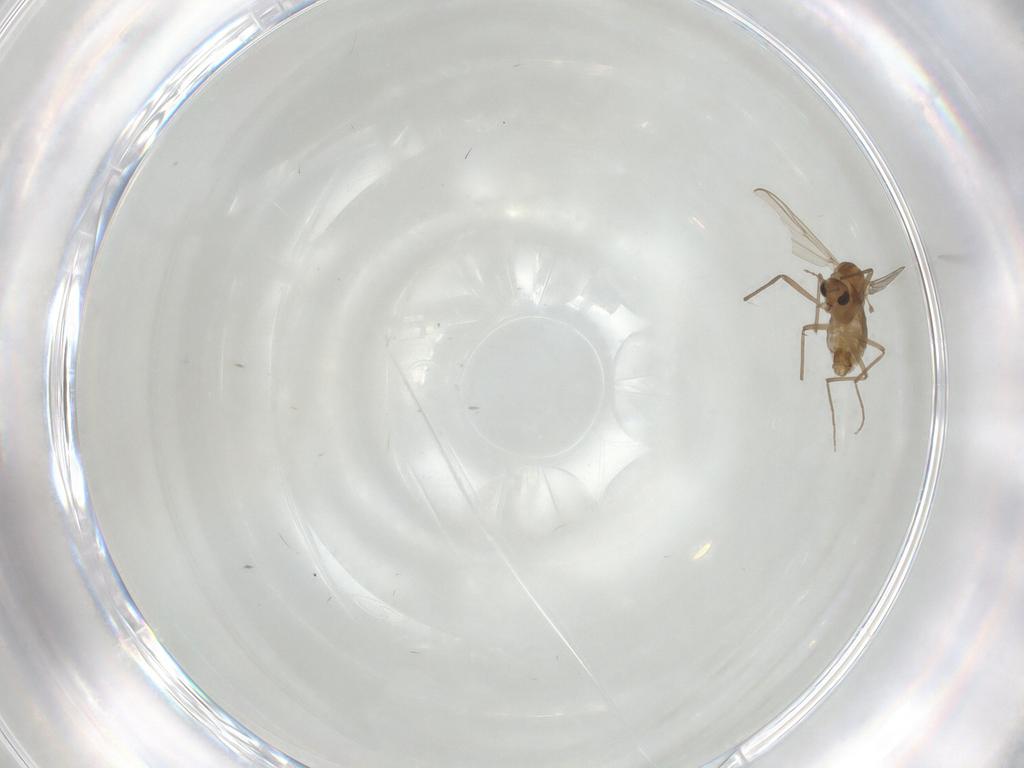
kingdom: Animalia
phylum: Arthropoda
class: Insecta
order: Diptera
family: Chironomidae
